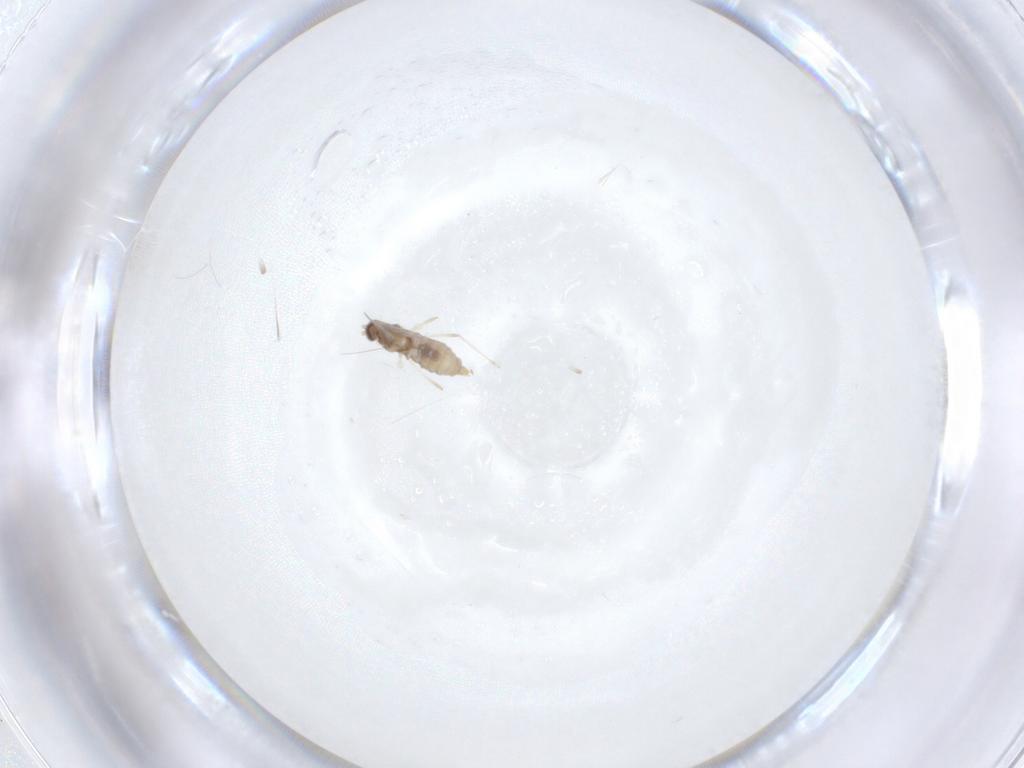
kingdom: Animalia
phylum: Arthropoda
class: Insecta
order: Diptera
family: Cecidomyiidae
